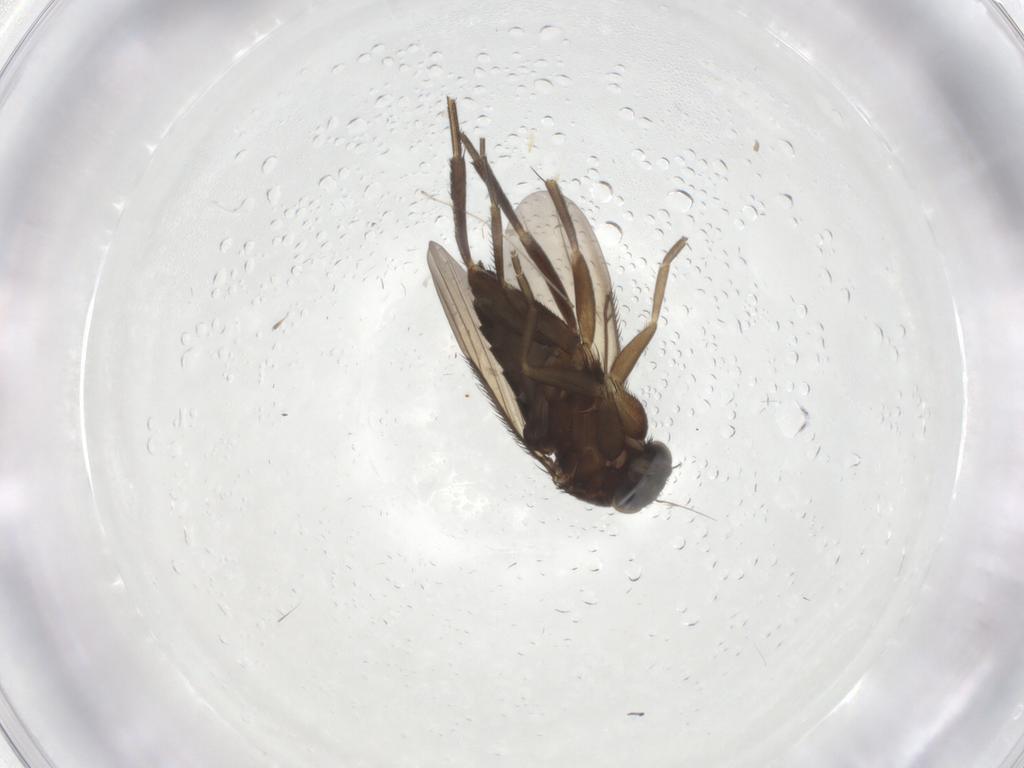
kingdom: Animalia
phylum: Arthropoda
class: Insecta
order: Diptera
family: Phoridae
